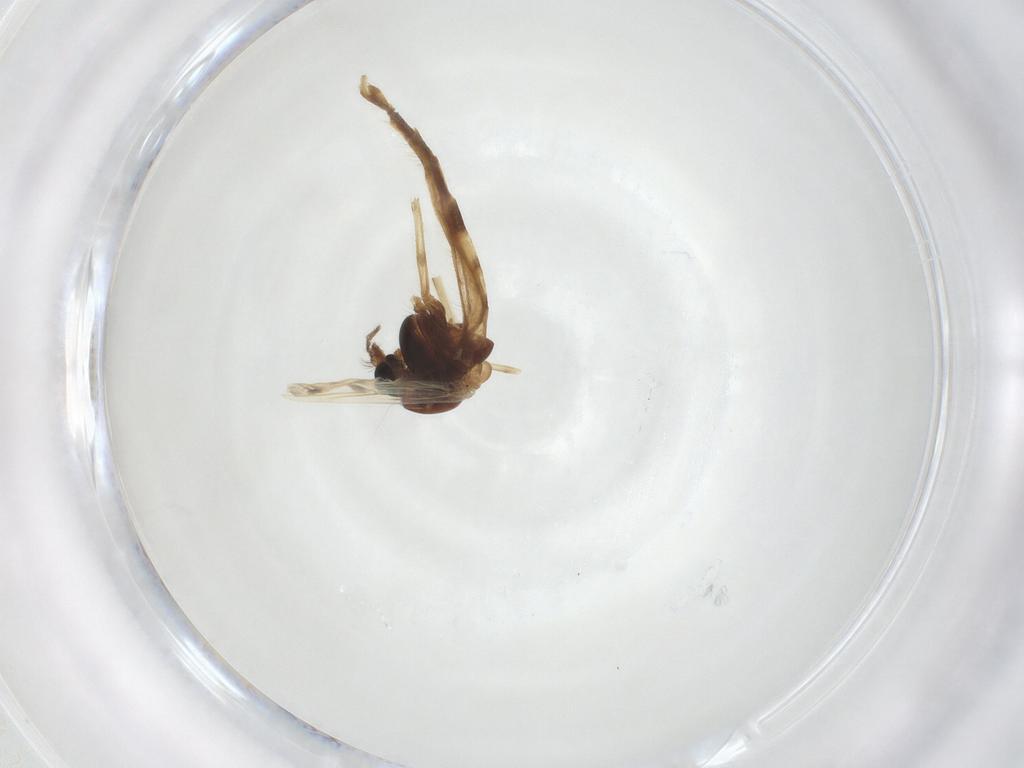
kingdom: Animalia
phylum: Arthropoda
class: Insecta
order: Diptera
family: Chironomidae
